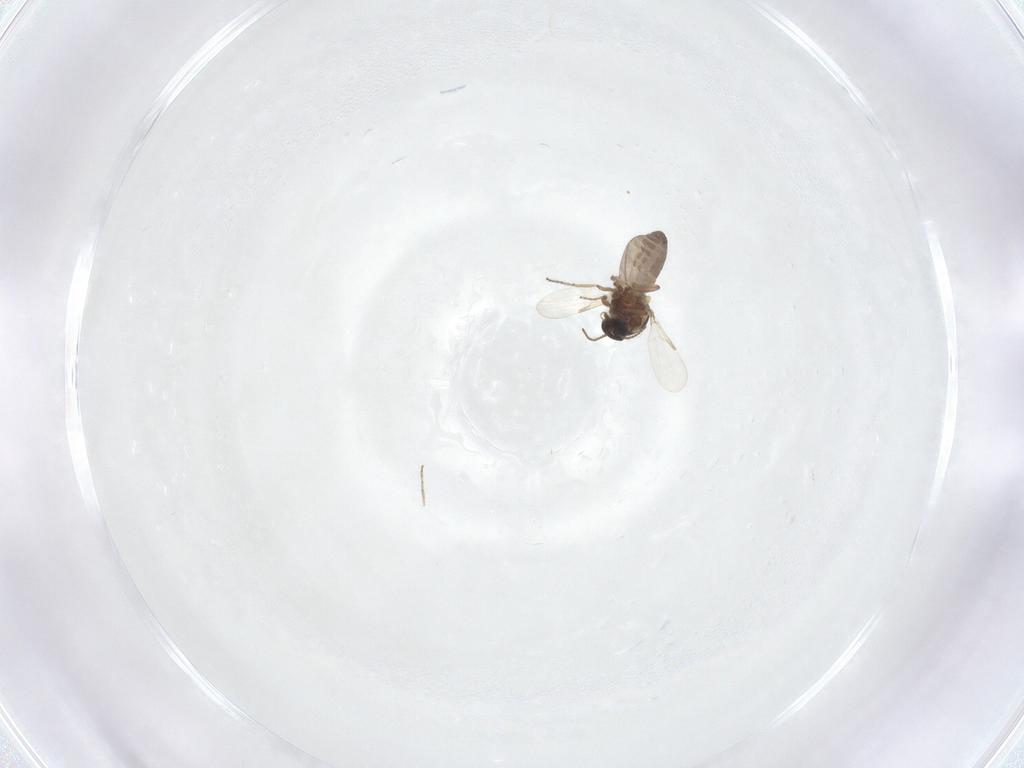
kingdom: Animalia
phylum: Arthropoda
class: Insecta
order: Diptera
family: Ceratopogonidae
